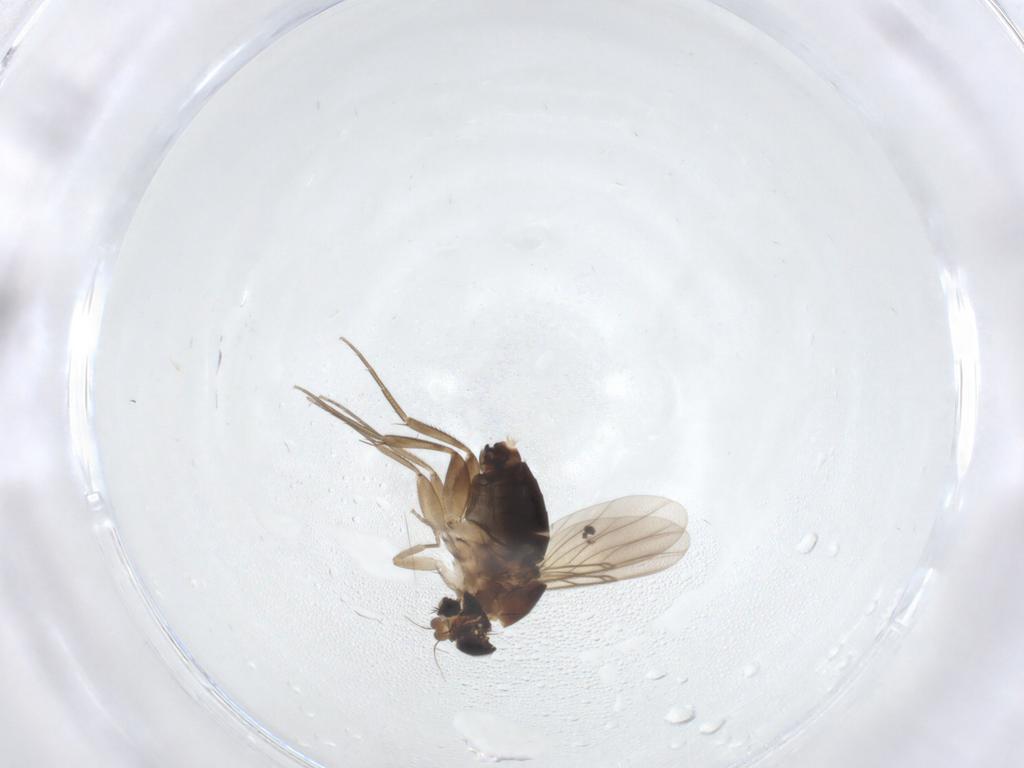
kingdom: Animalia
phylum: Arthropoda
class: Insecta
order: Diptera
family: Phoridae
